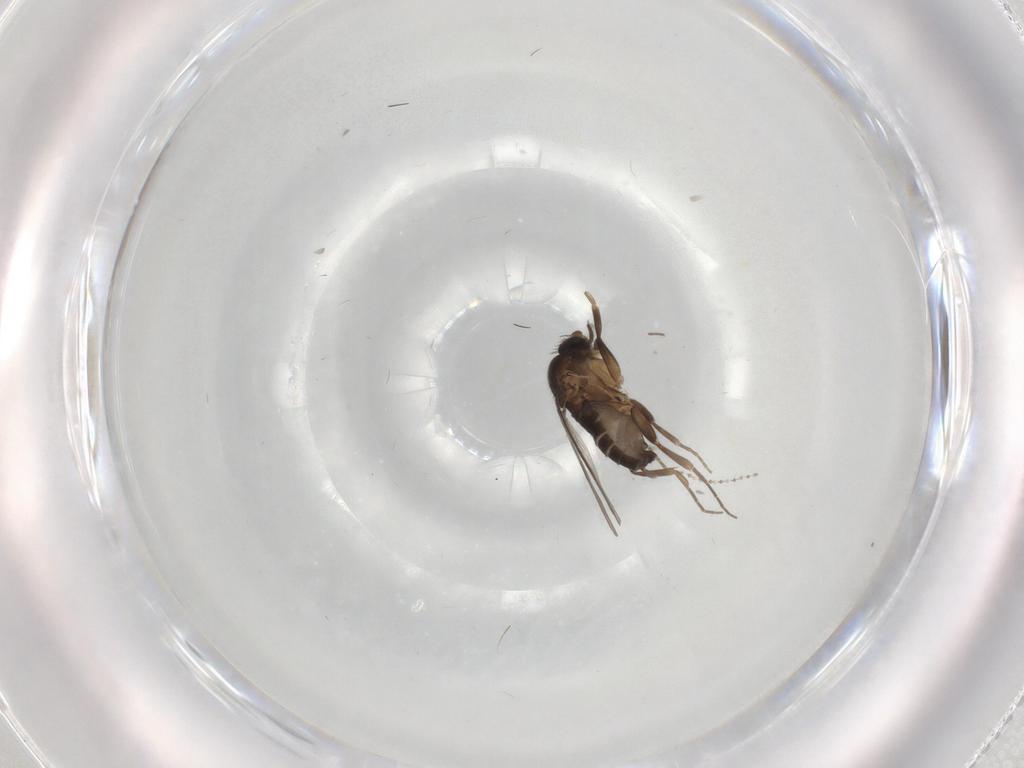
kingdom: Animalia
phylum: Arthropoda
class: Insecta
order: Diptera
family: Phoridae
